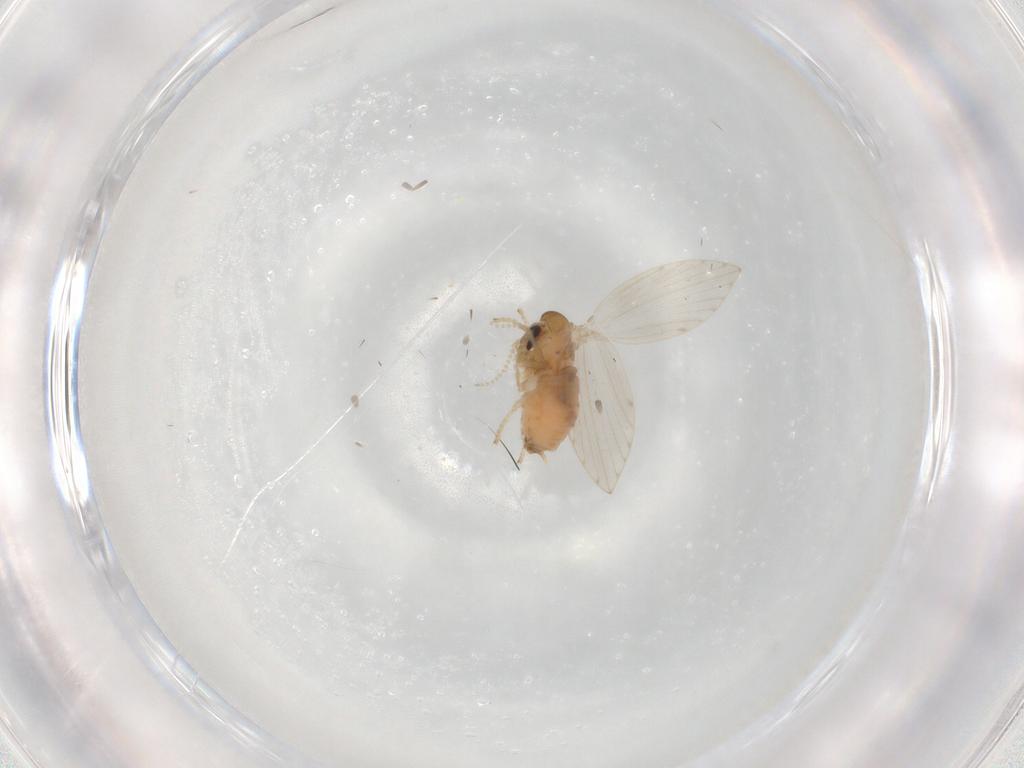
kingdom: Animalia
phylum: Arthropoda
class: Insecta
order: Diptera
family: Psychodidae
